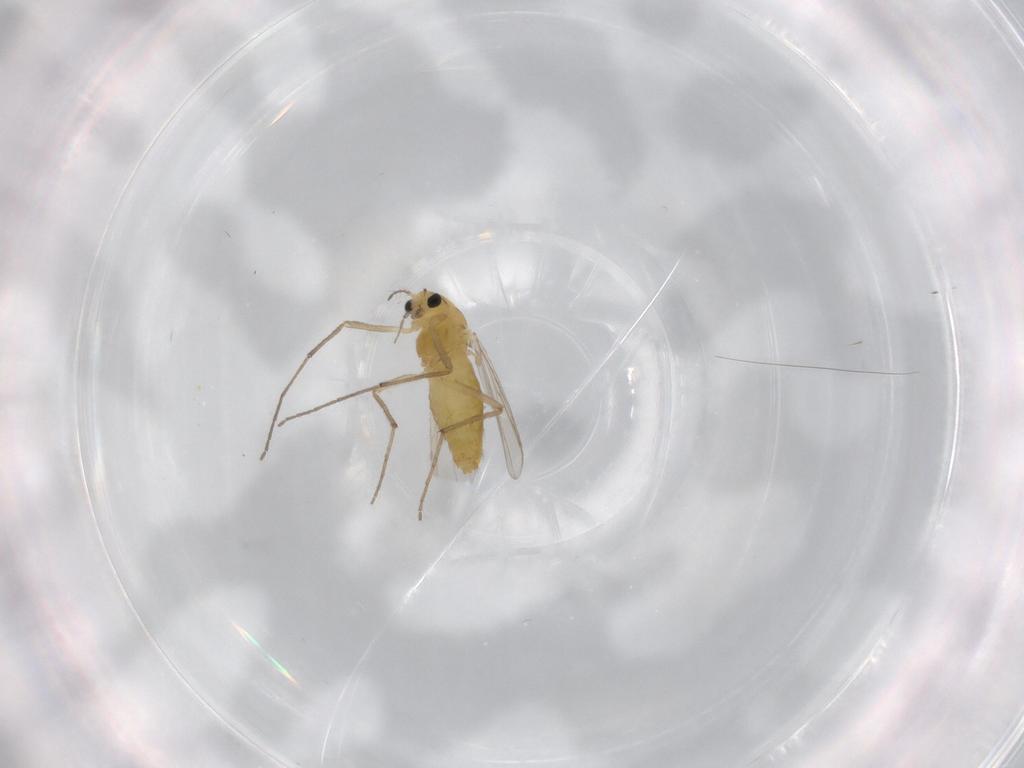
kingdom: Animalia
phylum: Arthropoda
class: Insecta
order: Diptera
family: Chironomidae
